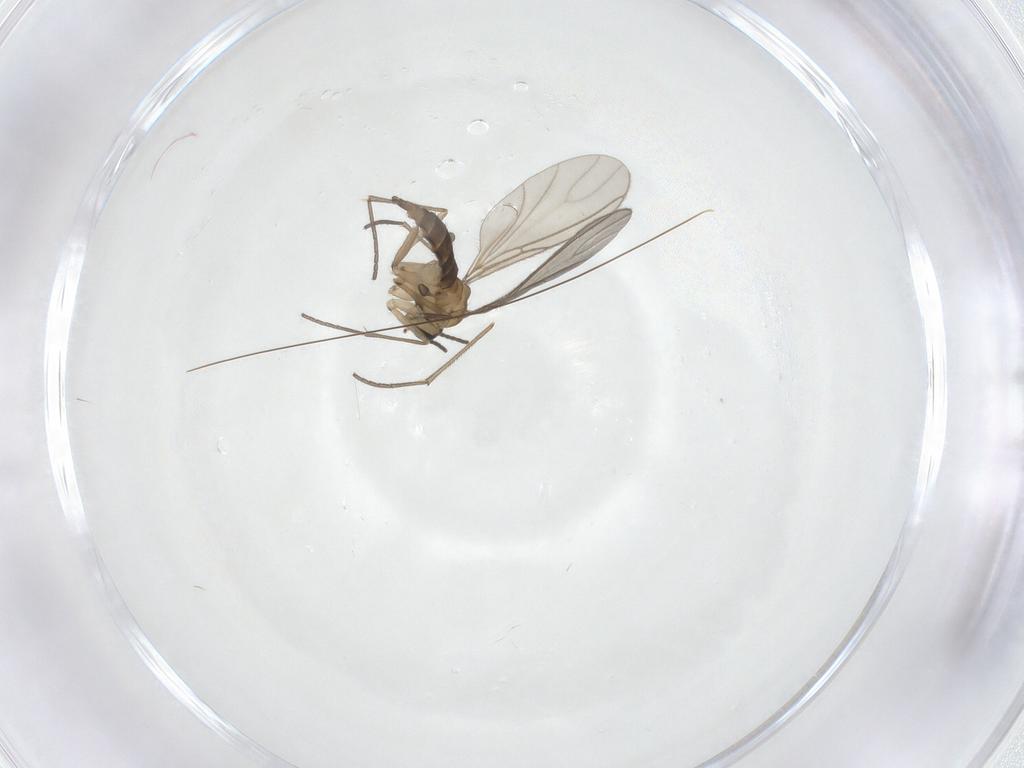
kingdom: Animalia
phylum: Arthropoda
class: Insecta
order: Diptera
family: Sciaridae
